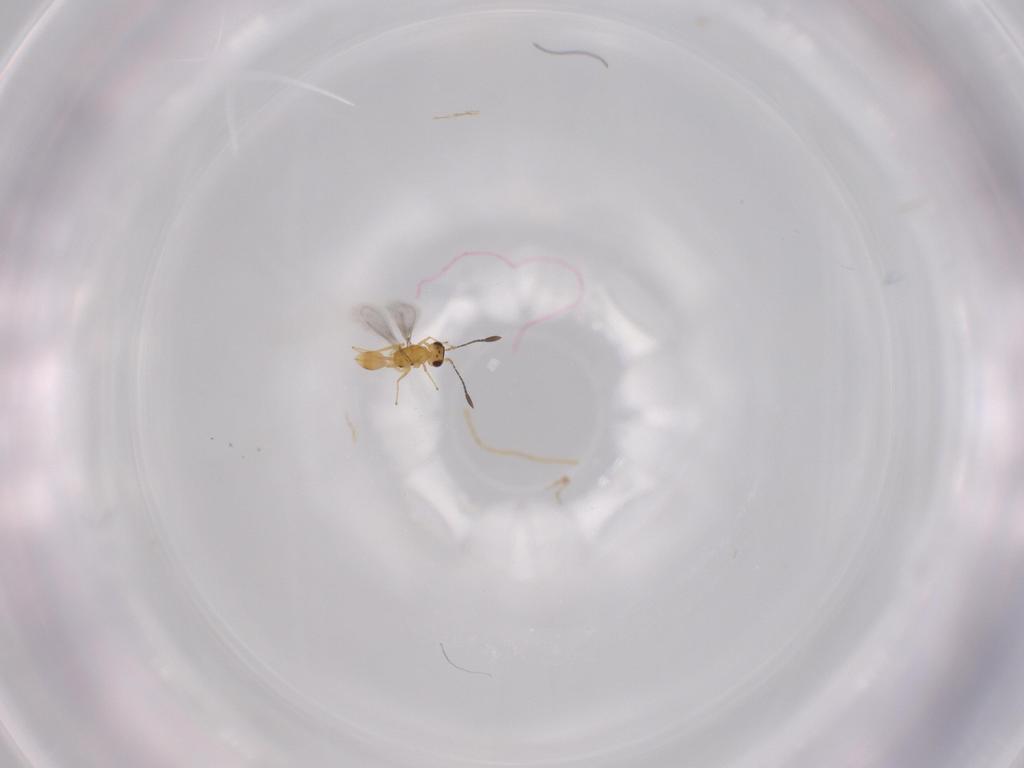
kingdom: Animalia
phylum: Arthropoda
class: Insecta
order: Hymenoptera
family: Mymaridae
